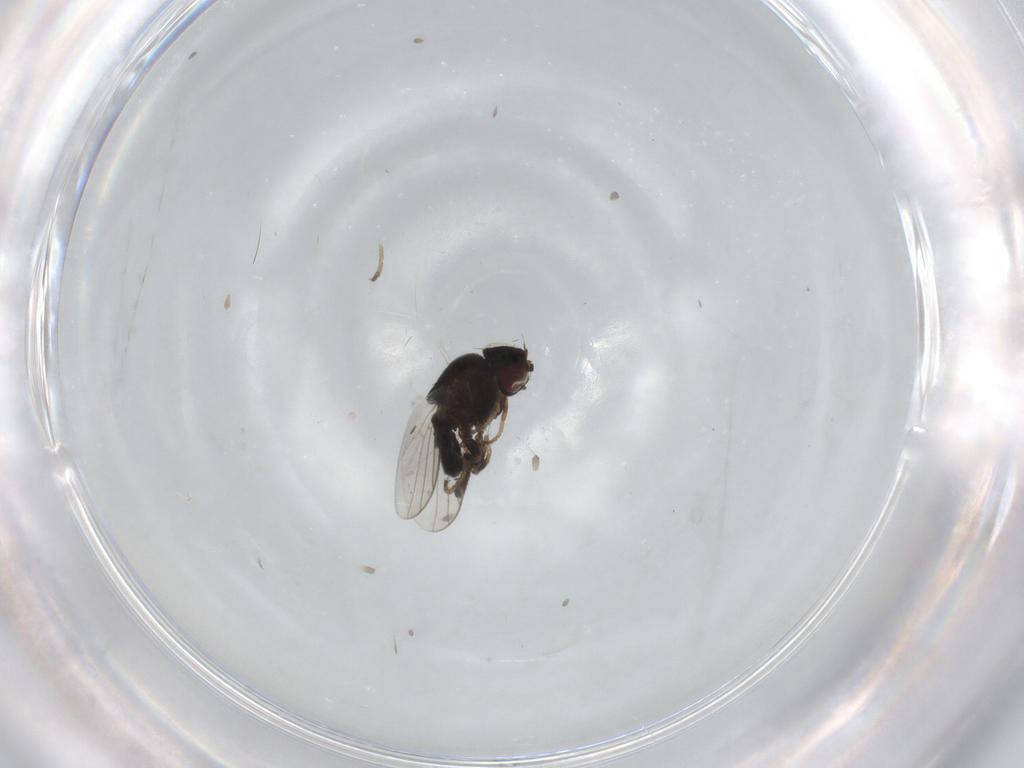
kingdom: Animalia
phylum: Arthropoda
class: Insecta
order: Diptera
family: Chloropidae
